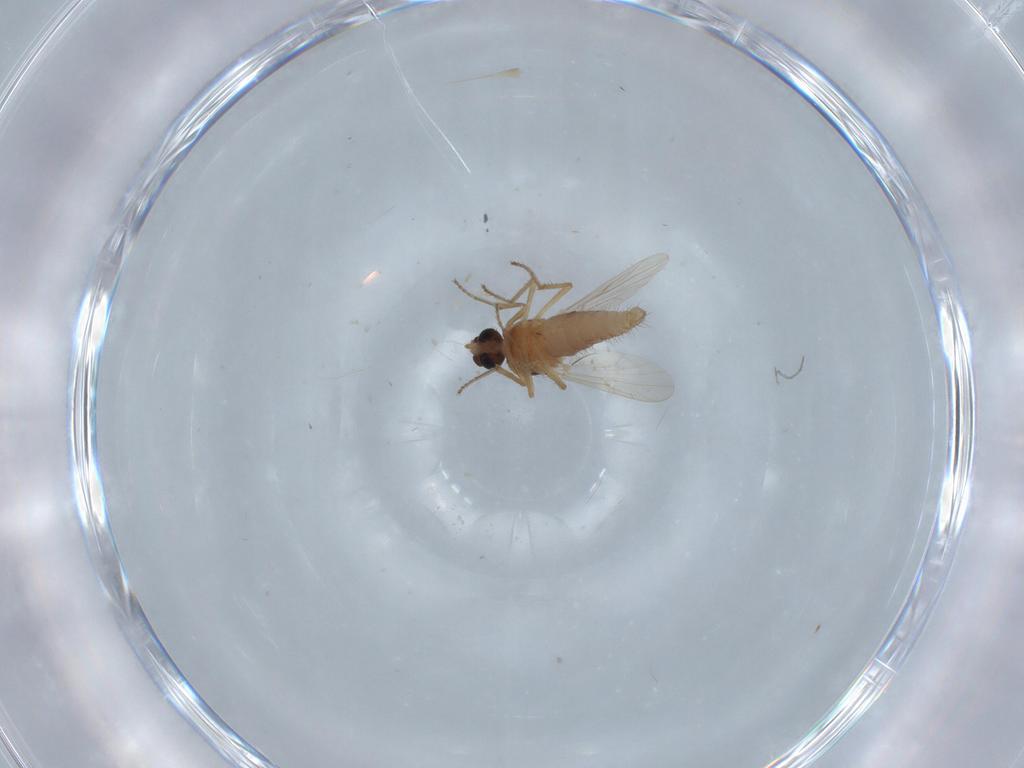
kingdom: Animalia
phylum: Arthropoda
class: Insecta
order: Diptera
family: Ceratopogonidae
